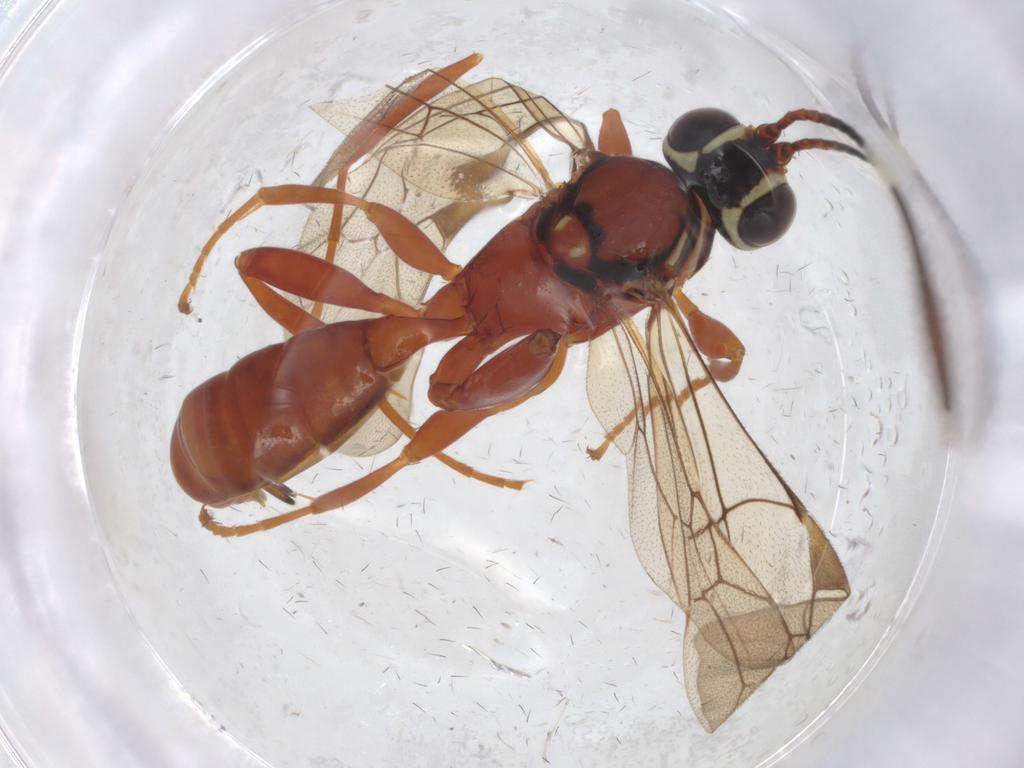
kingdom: Animalia
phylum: Arthropoda
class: Insecta
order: Hymenoptera
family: Ichneumonidae
